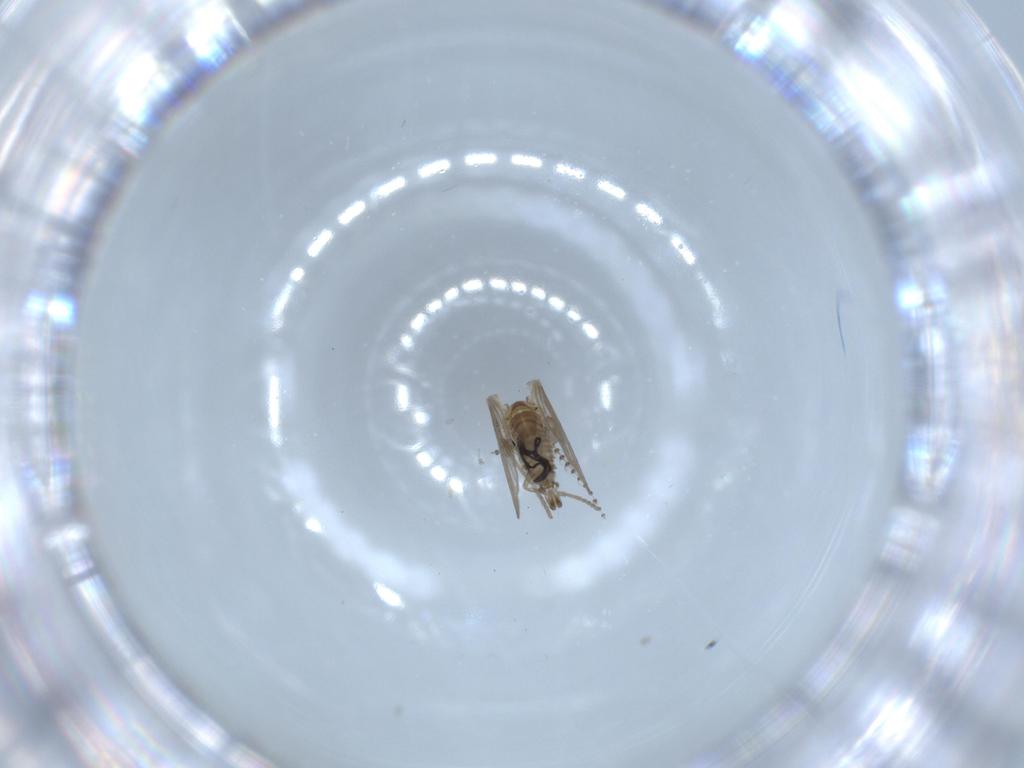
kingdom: Animalia
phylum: Arthropoda
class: Insecta
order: Diptera
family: Psychodidae
